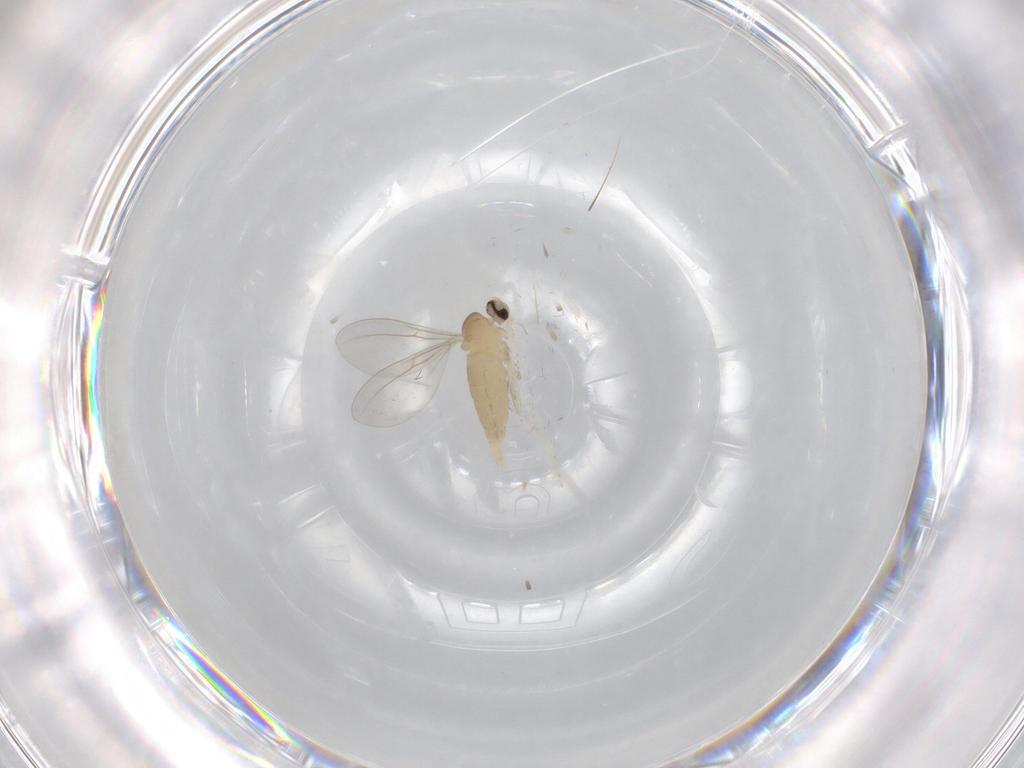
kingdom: Animalia
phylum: Arthropoda
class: Insecta
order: Diptera
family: Cecidomyiidae
